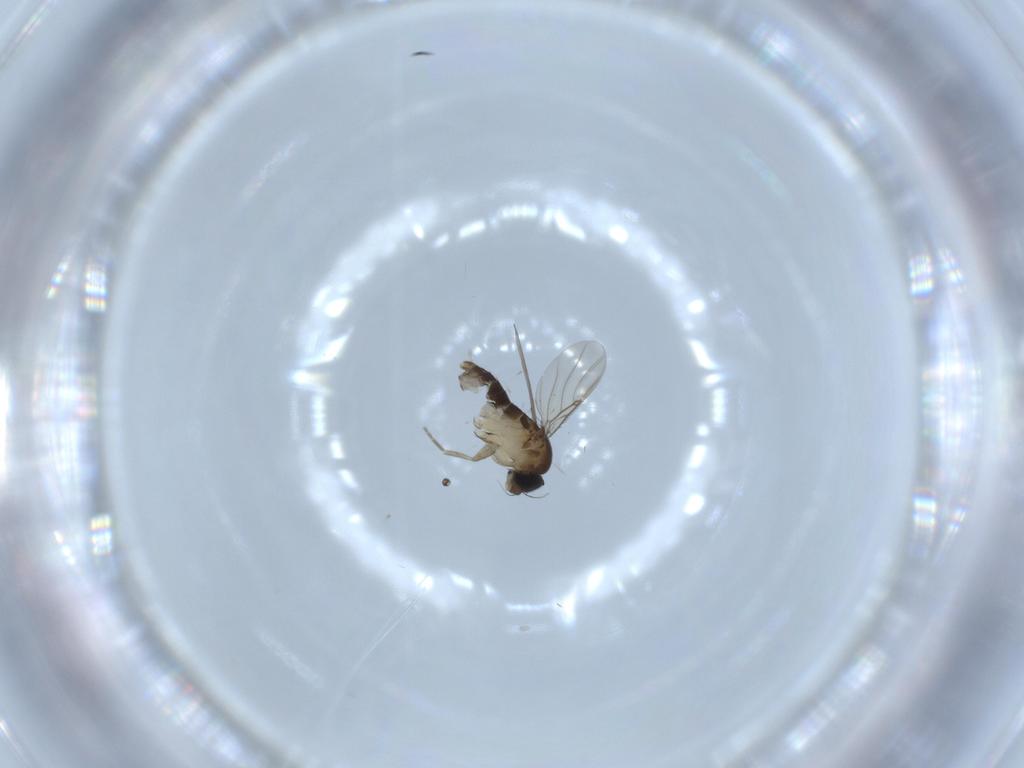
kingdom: Animalia
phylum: Arthropoda
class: Insecta
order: Diptera
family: Phoridae
